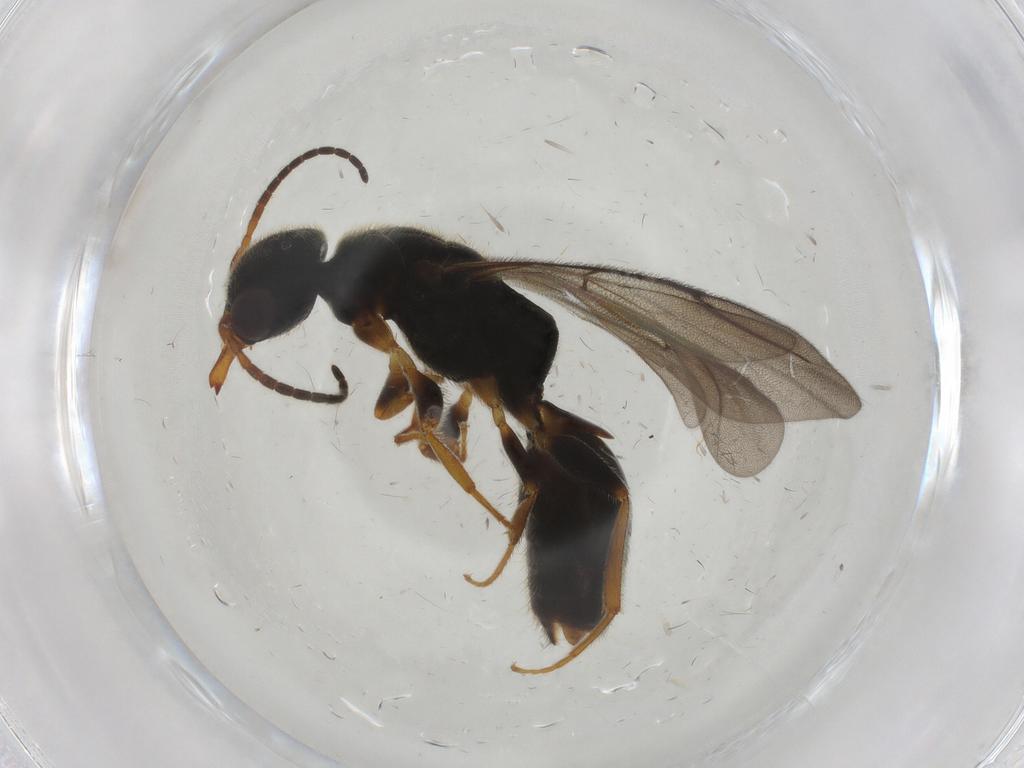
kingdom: Animalia
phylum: Arthropoda
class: Insecta
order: Hymenoptera
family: Bethylidae
